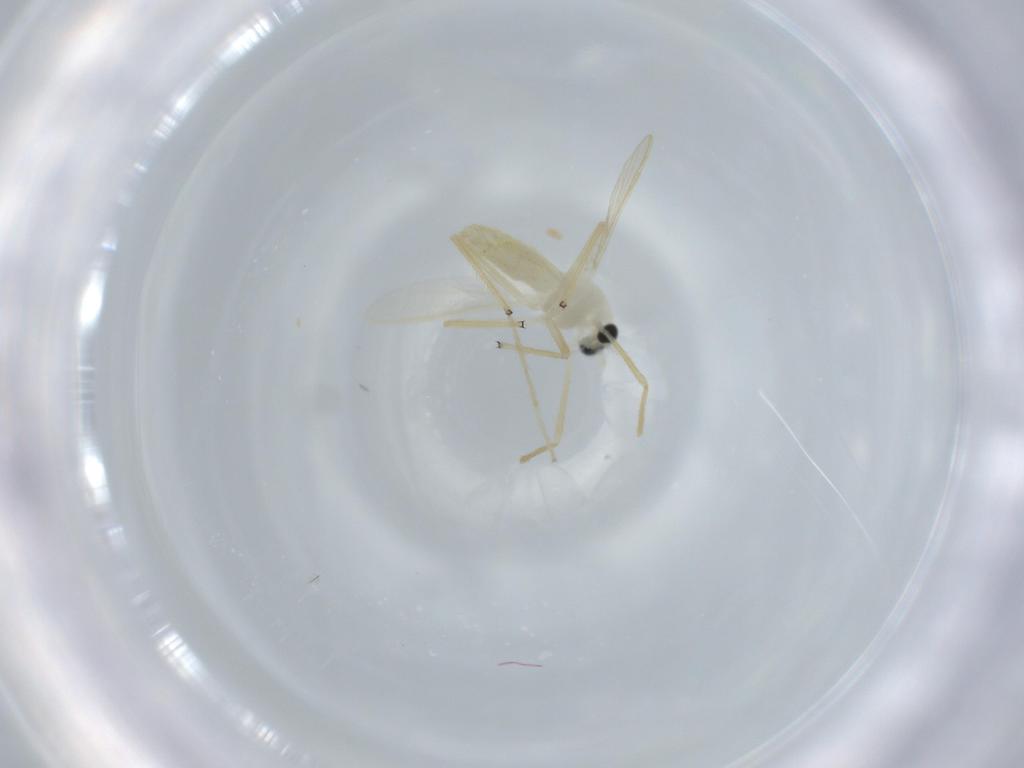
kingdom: Animalia
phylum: Arthropoda
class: Insecta
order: Diptera
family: Chironomidae
